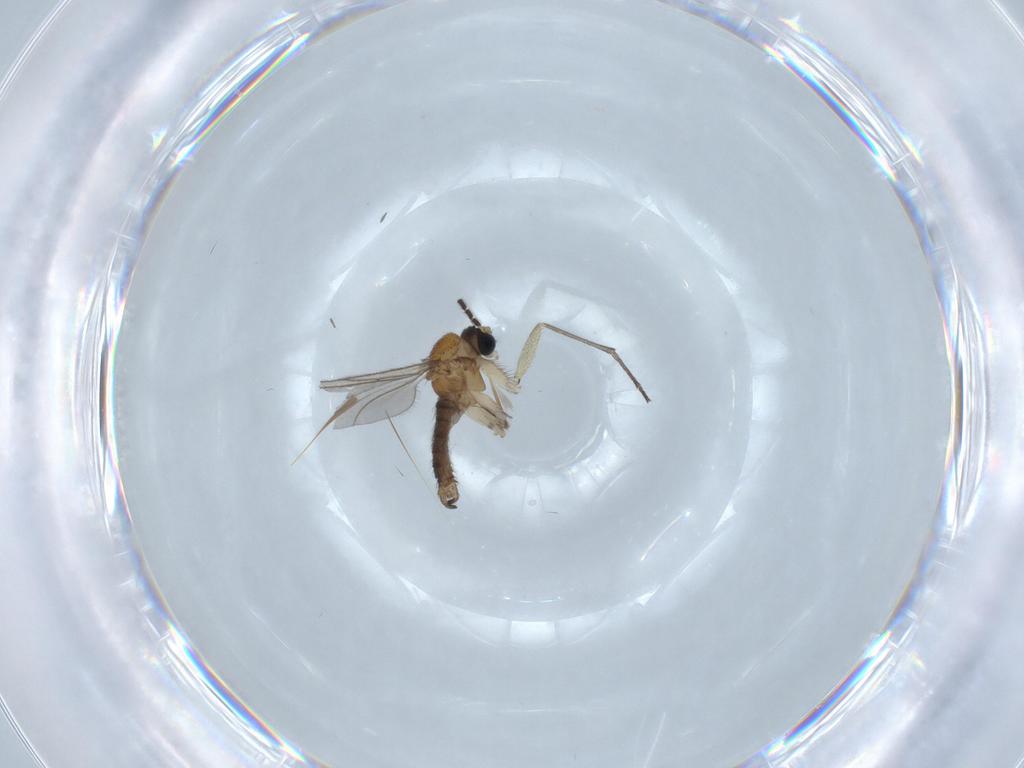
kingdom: Animalia
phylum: Arthropoda
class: Insecta
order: Diptera
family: Sciaridae
